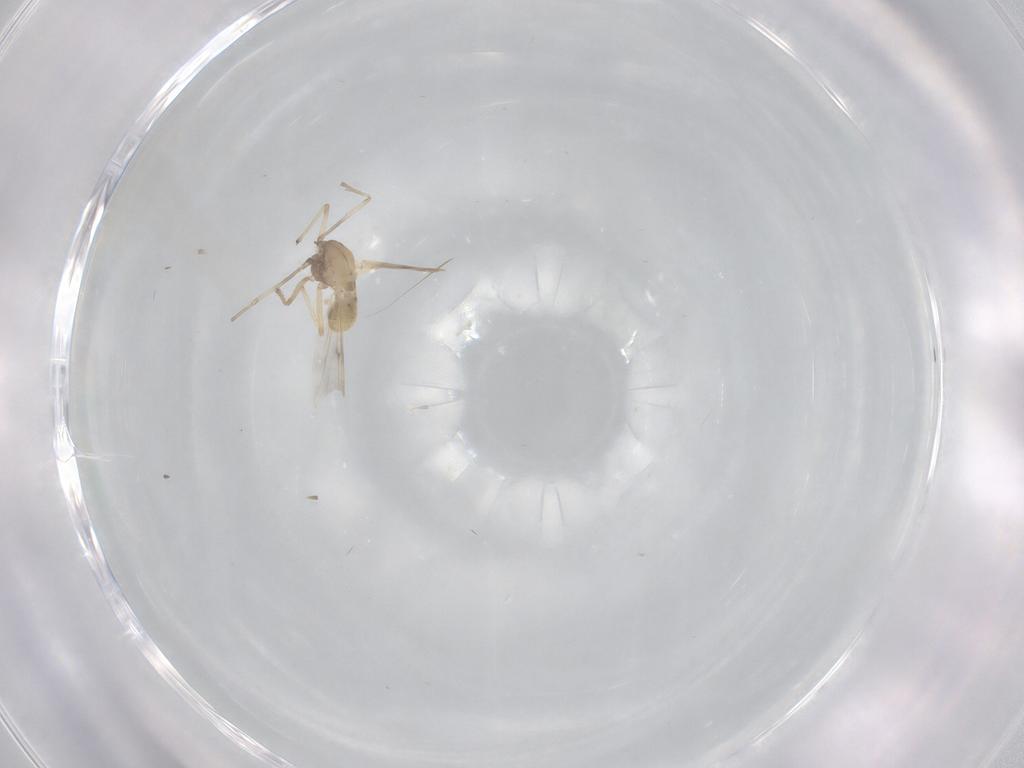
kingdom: Animalia
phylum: Arthropoda
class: Insecta
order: Diptera
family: Chironomidae
